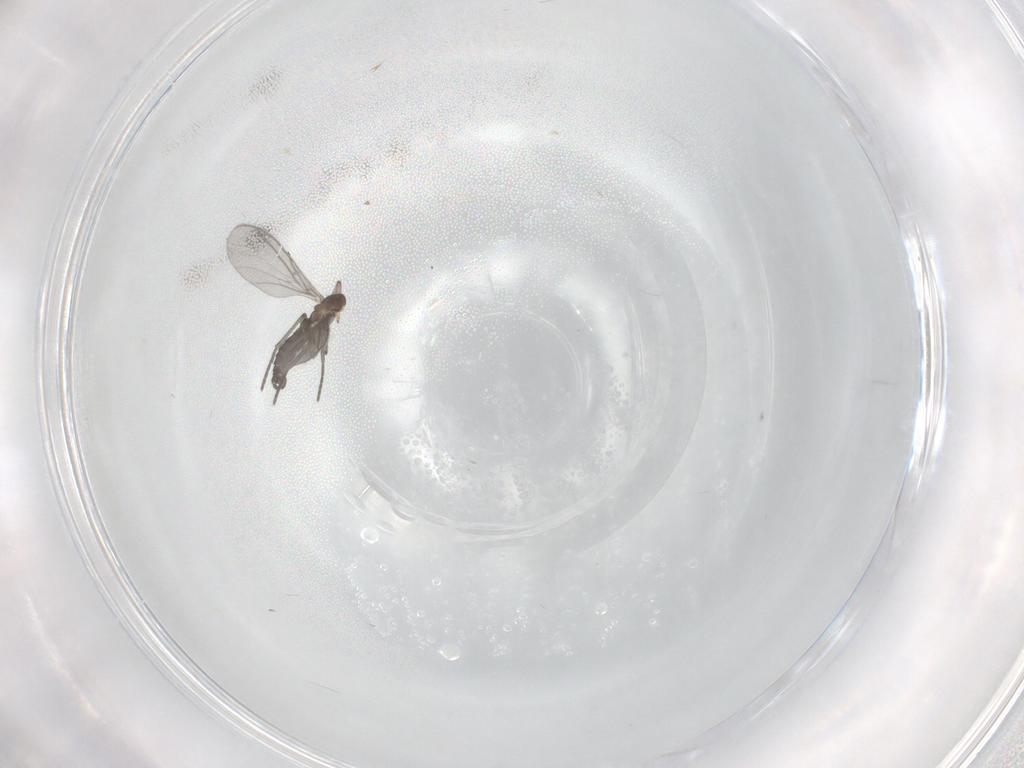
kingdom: Animalia
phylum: Arthropoda
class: Insecta
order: Diptera
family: Sciaridae
